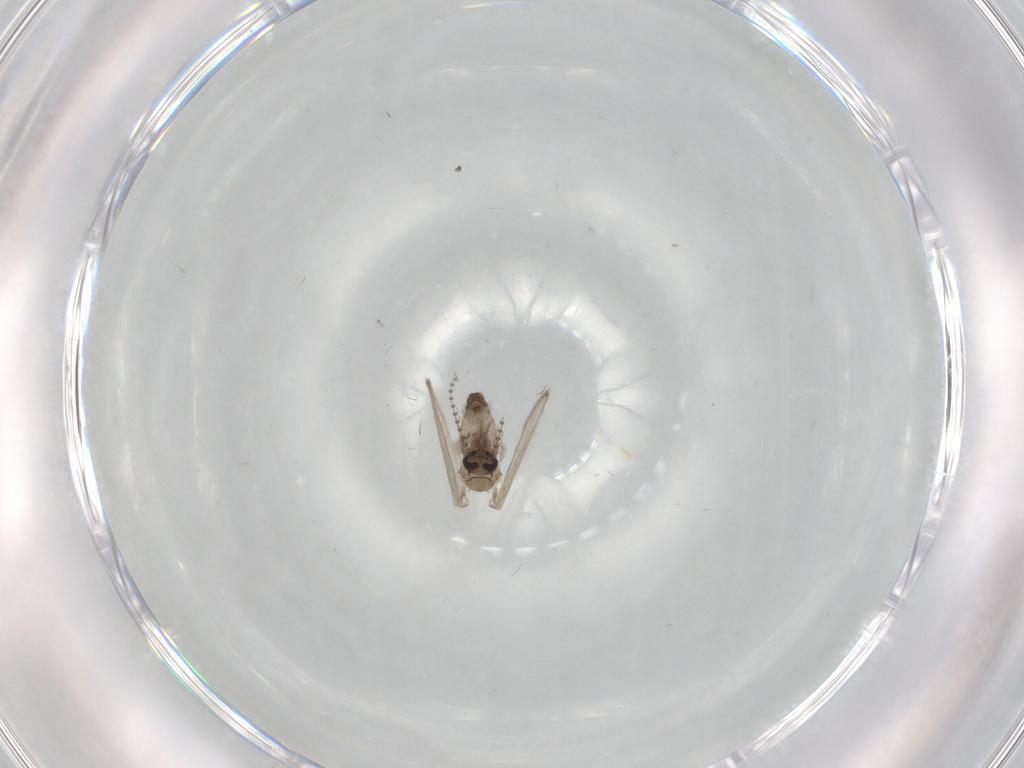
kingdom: Animalia
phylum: Arthropoda
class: Insecta
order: Diptera
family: Psychodidae
